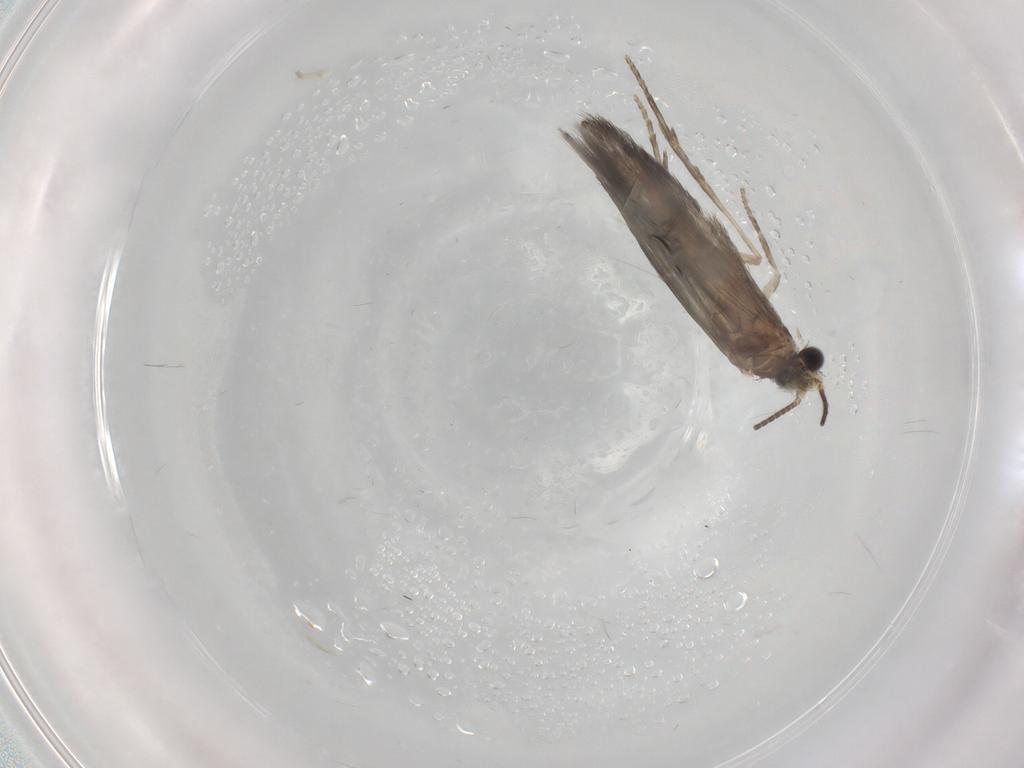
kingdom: Animalia
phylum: Arthropoda
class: Insecta
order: Trichoptera
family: Hydroptilidae
